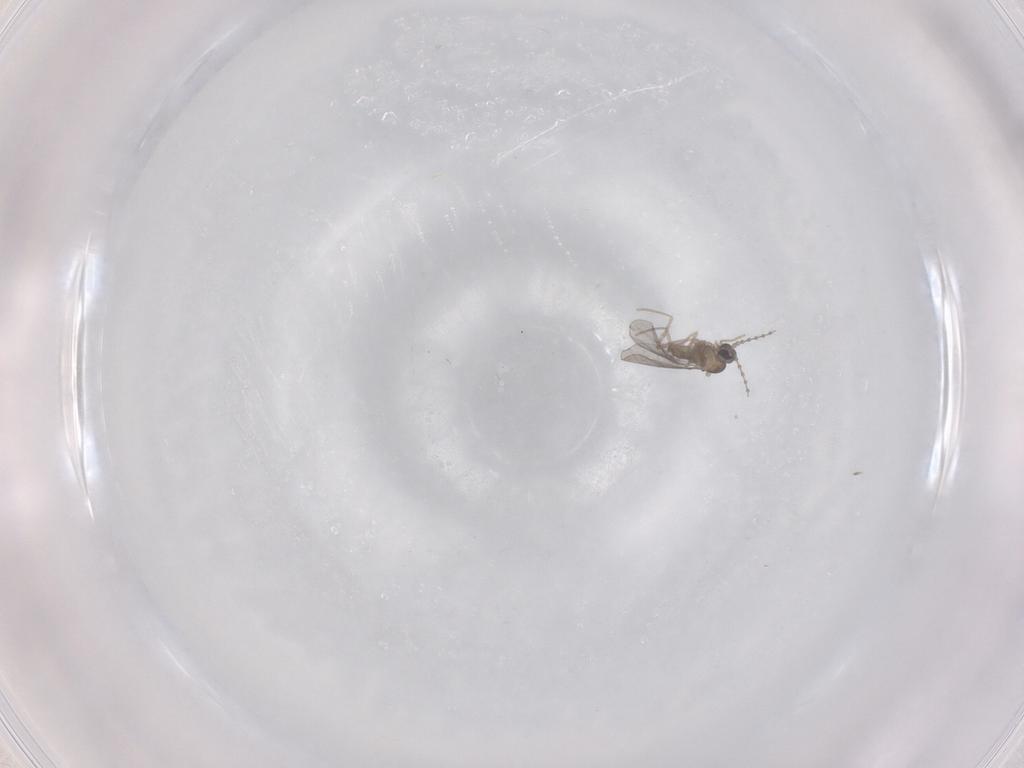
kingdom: Animalia
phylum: Arthropoda
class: Insecta
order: Diptera
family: Cecidomyiidae
